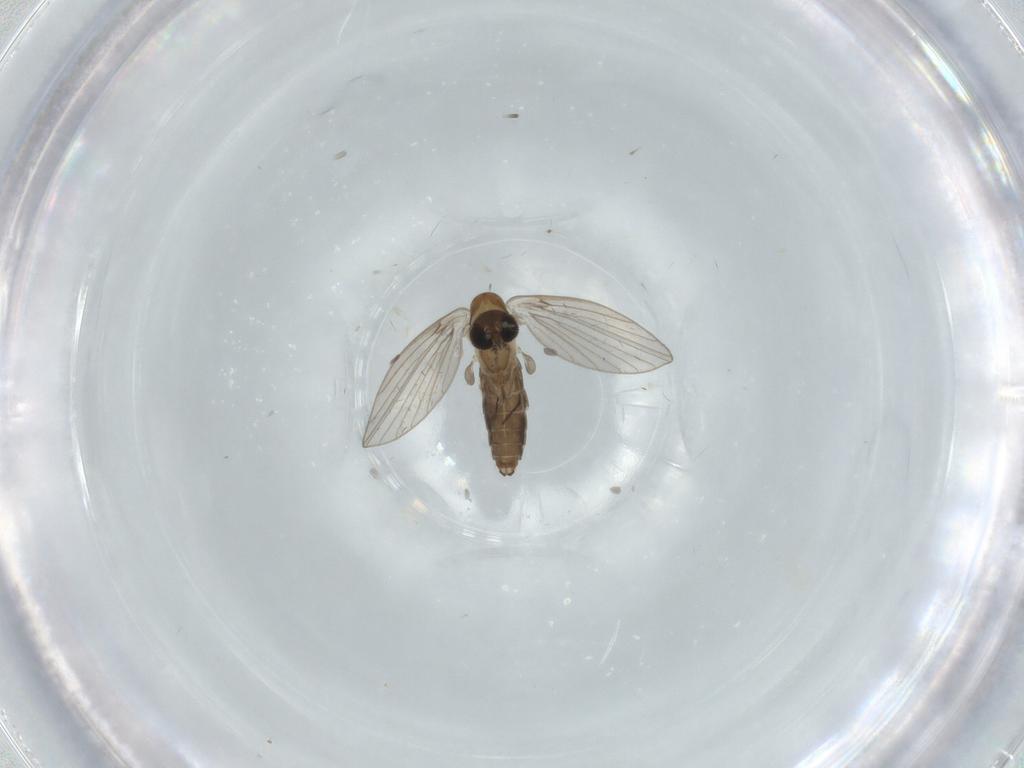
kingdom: Animalia
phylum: Arthropoda
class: Insecta
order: Diptera
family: Psychodidae
